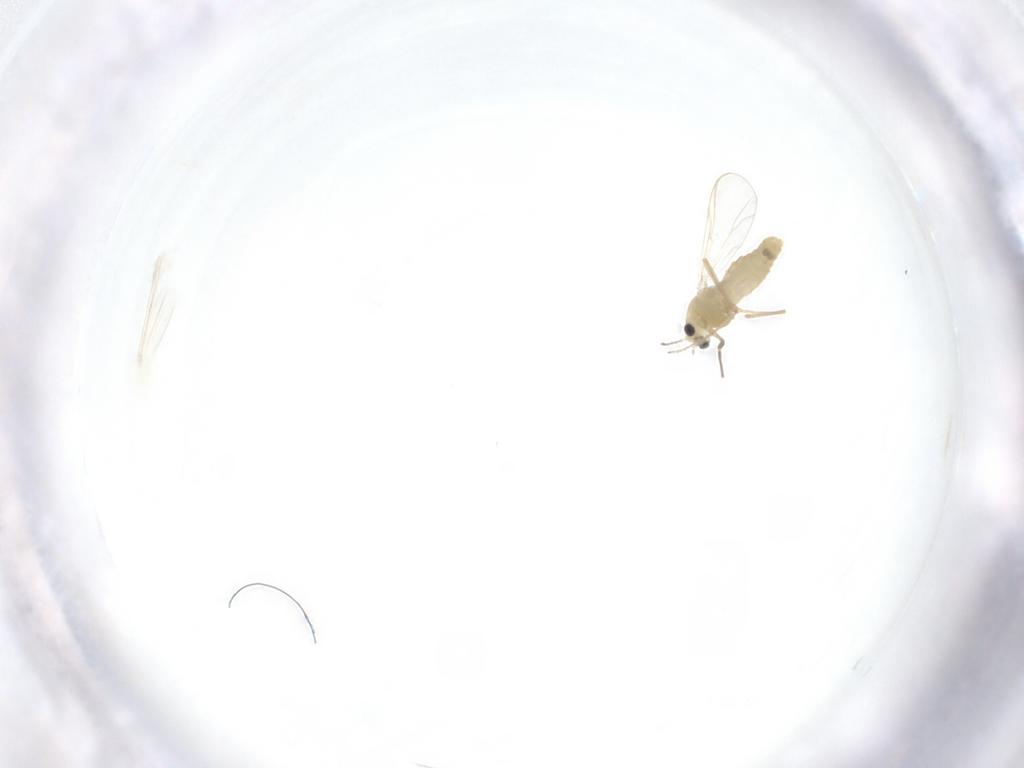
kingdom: Animalia
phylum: Arthropoda
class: Insecta
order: Diptera
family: Chironomidae
